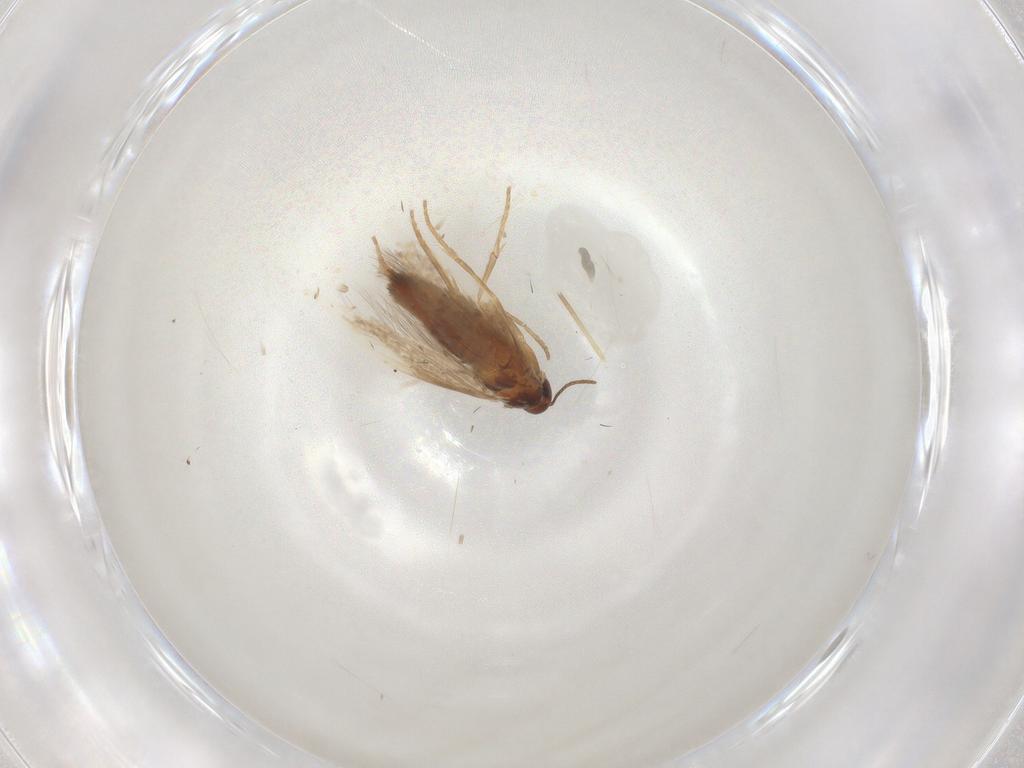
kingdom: Animalia
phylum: Arthropoda
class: Insecta
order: Lepidoptera
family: Heliozelidae
